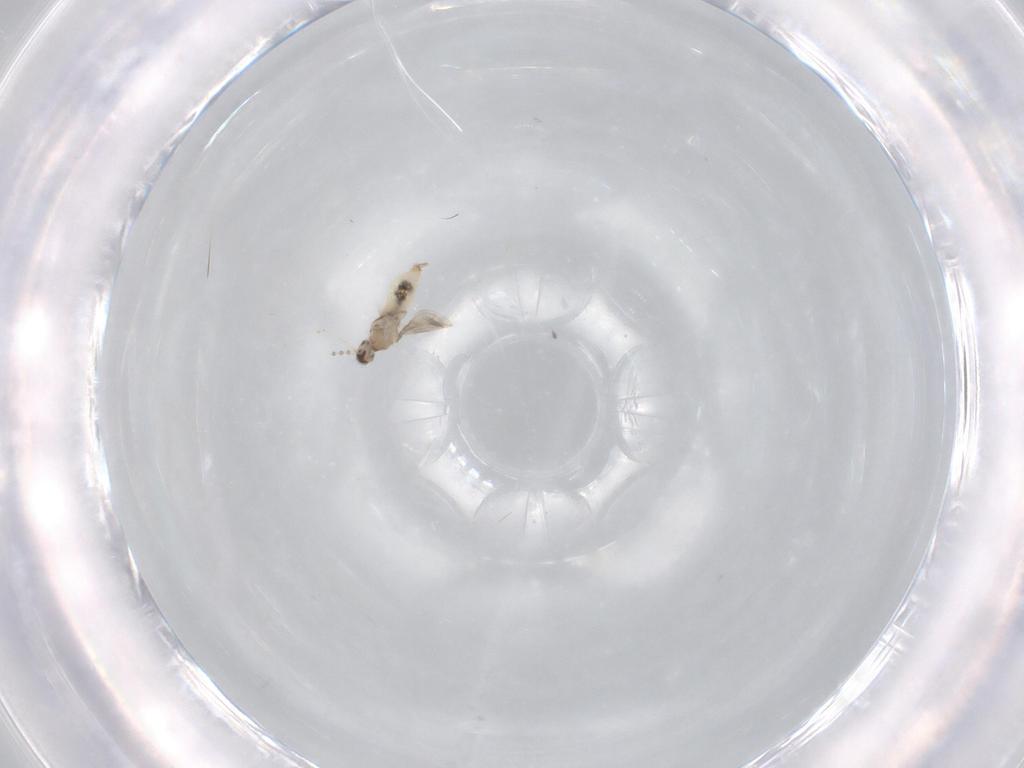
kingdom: Animalia
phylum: Arthropoda
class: Insecta
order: Diptera
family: Cecidomyiidae
